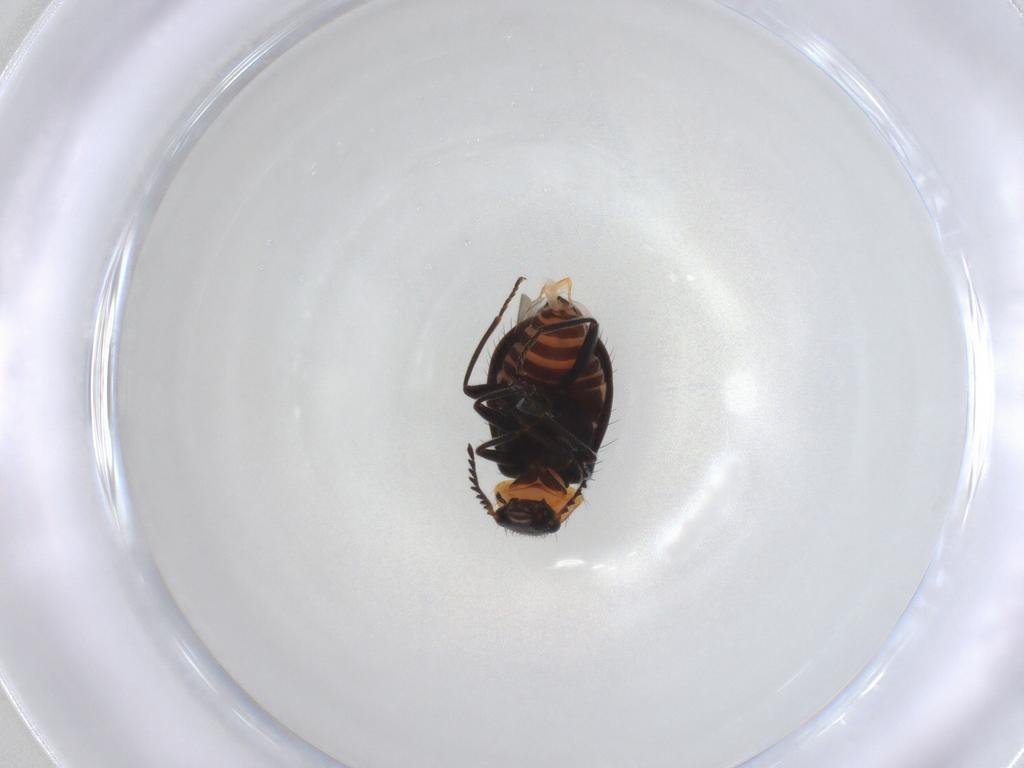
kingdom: Animalia
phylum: Arthropoda
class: Insecta
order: Coleoptera
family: Melyridae
